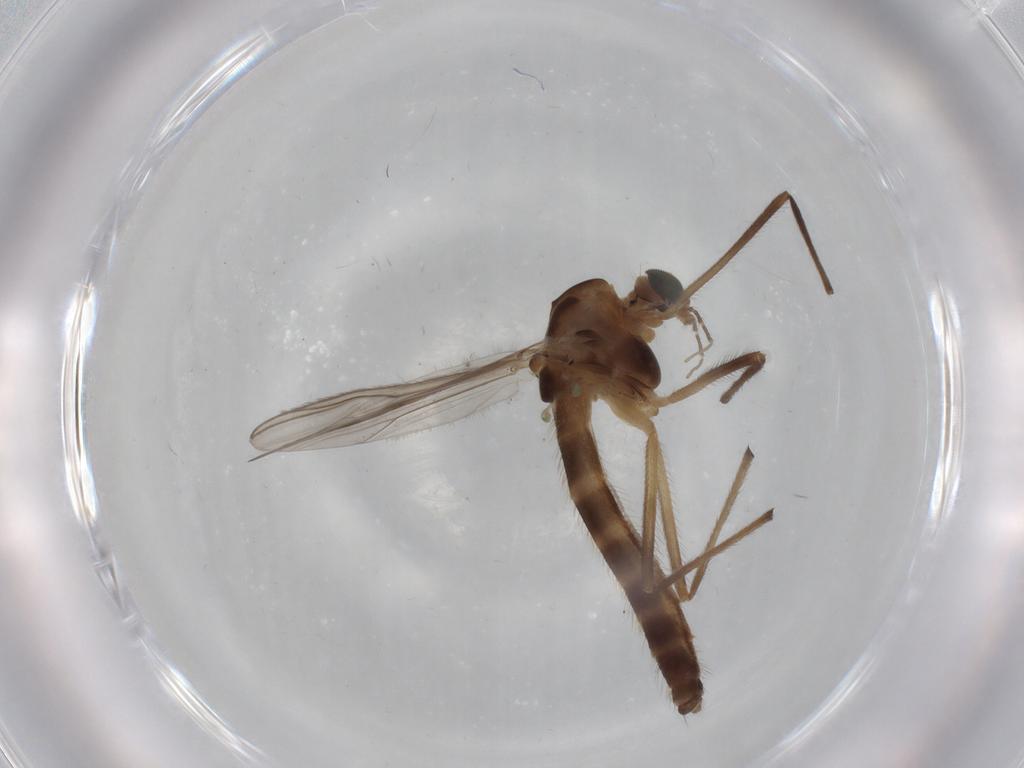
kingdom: Animalia
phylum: Arthropoda
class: Insecta
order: Diptera
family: Chironomidae
